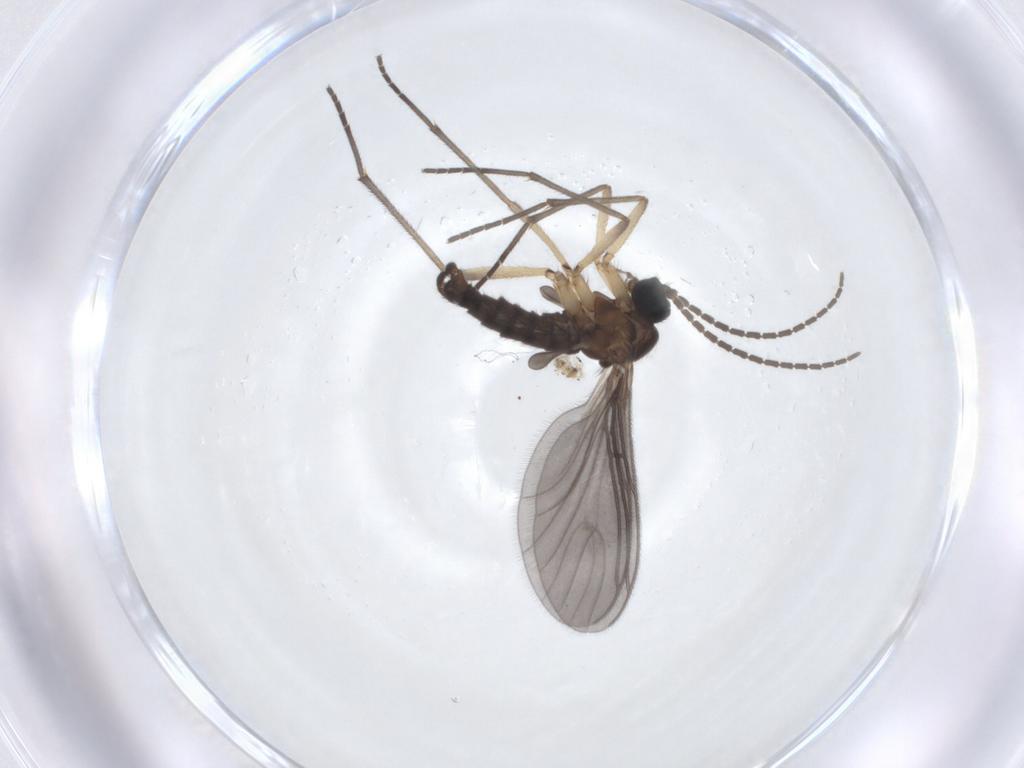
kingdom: Animalia
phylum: Arthropoda
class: Insecta
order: Diptera
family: Sciaridae
